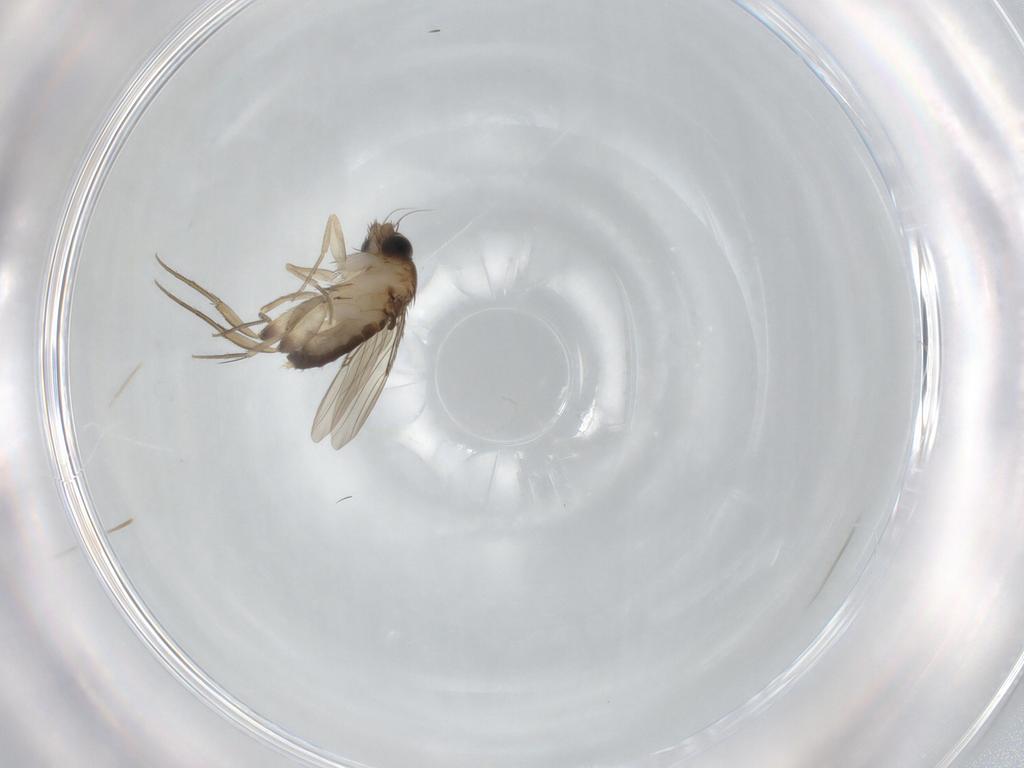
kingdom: Animalia
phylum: Arthropoda
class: Insecta
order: Diptera
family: Phoridae
